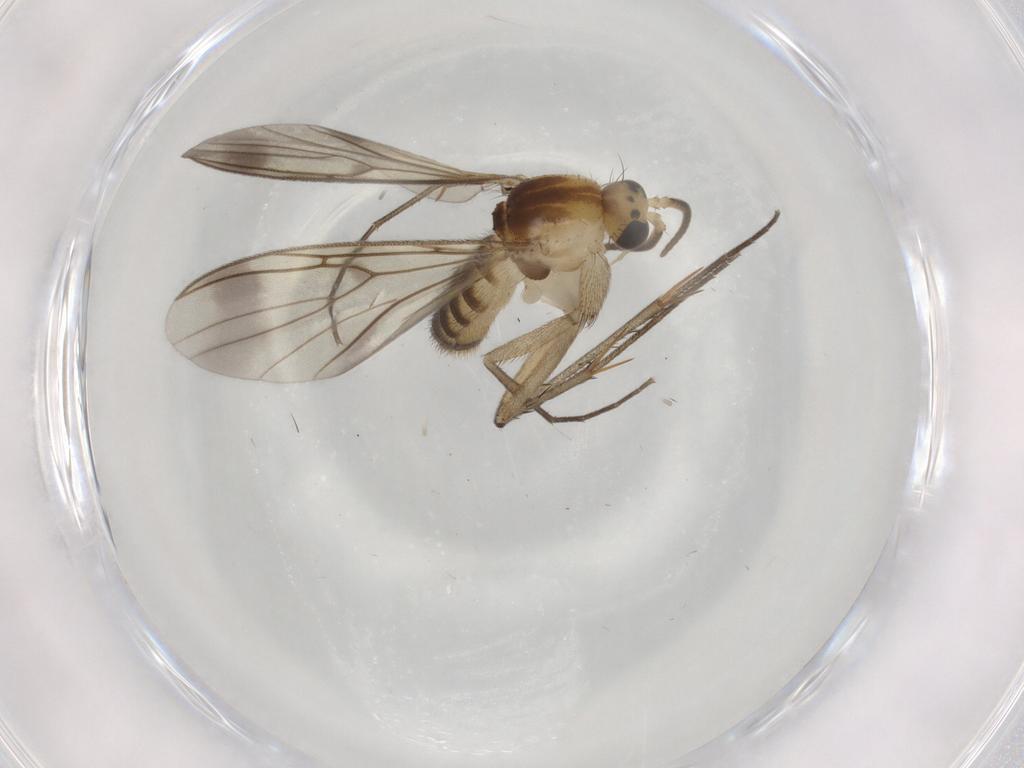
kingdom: Animalia
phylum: Arthropoda
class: Insecta
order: Diptera
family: Chironomidae
